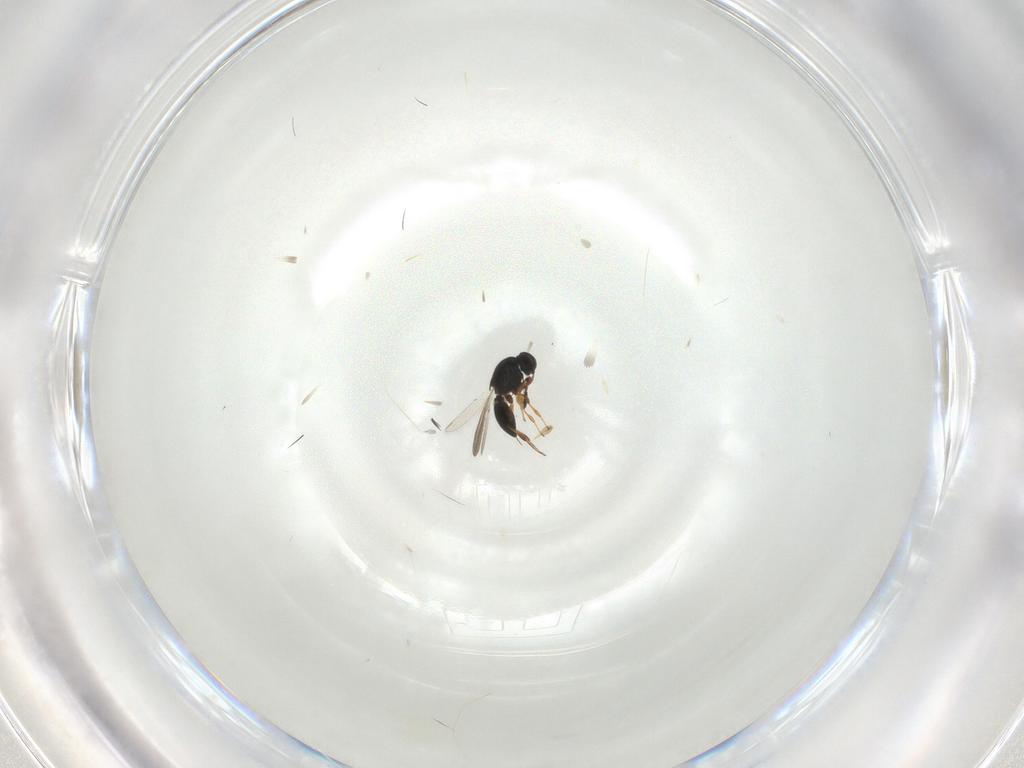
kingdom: Animalia
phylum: Arthropoda
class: Insecta
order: Hymenoptera
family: Platygastridae
